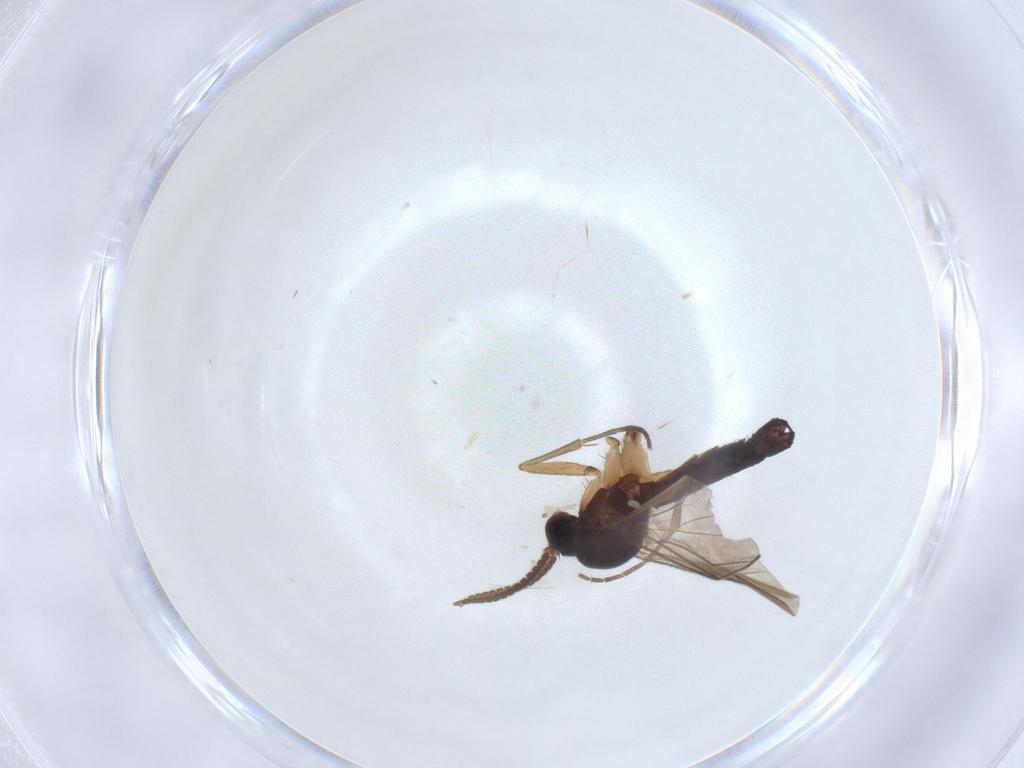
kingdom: Animalia
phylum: Arthropoda
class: Insecta
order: Diptera
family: Mycetophilidae
